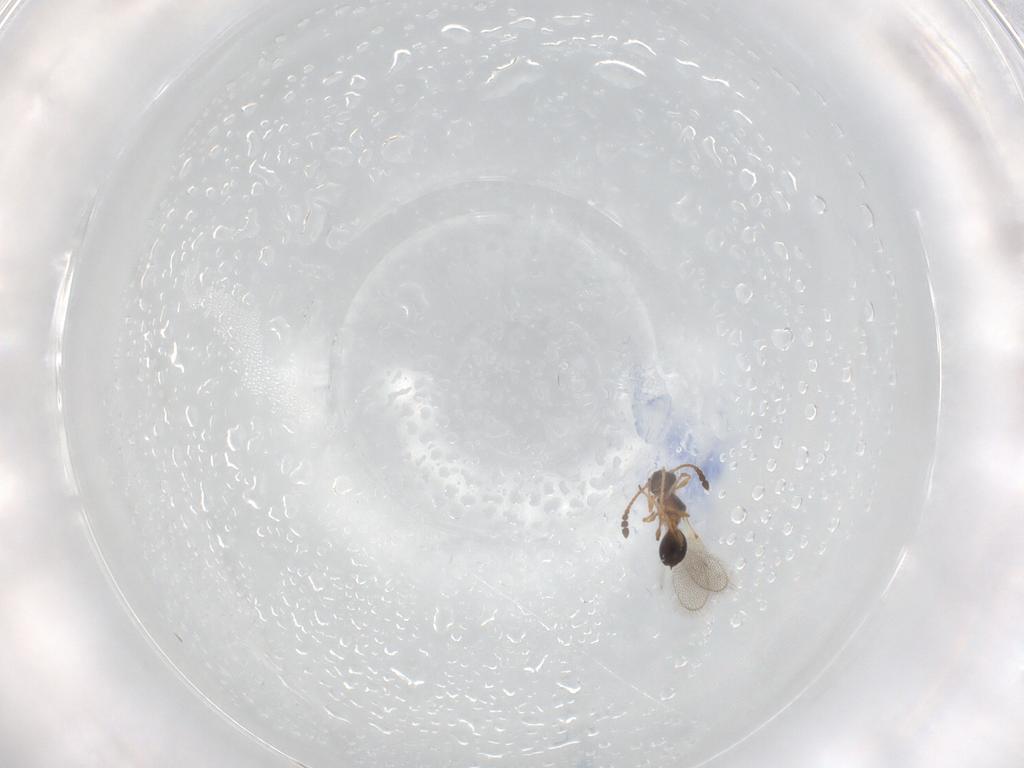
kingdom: Animalia
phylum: Arthropoda
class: Insecta
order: Hymenoptera
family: Diapriidae
